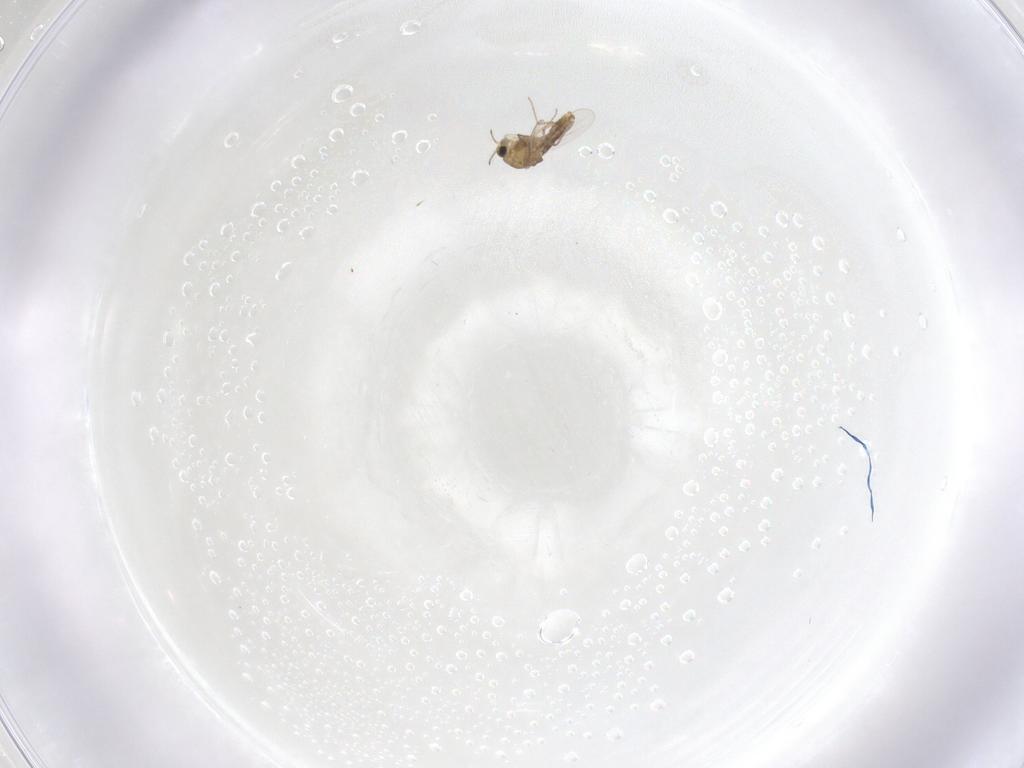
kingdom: Animalia
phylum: Arthropoda
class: Insecta
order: Diptera
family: Chironomidae
